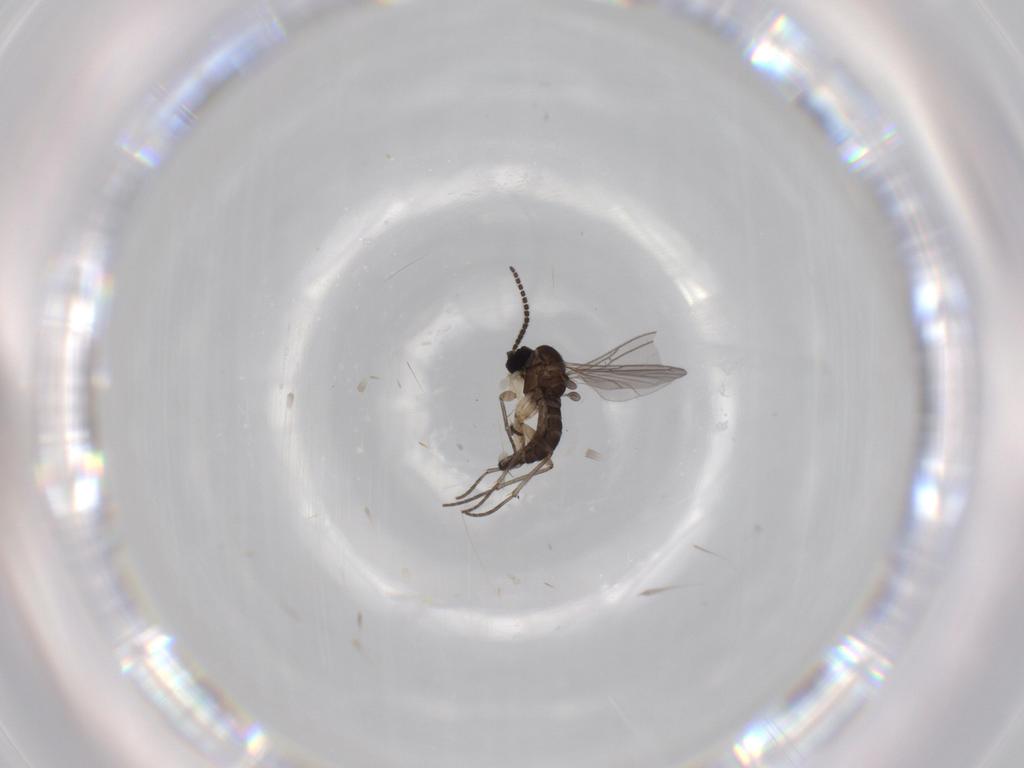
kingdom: Animalia
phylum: Arthropoda
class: Insecta
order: Diptera
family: Sciaridae
